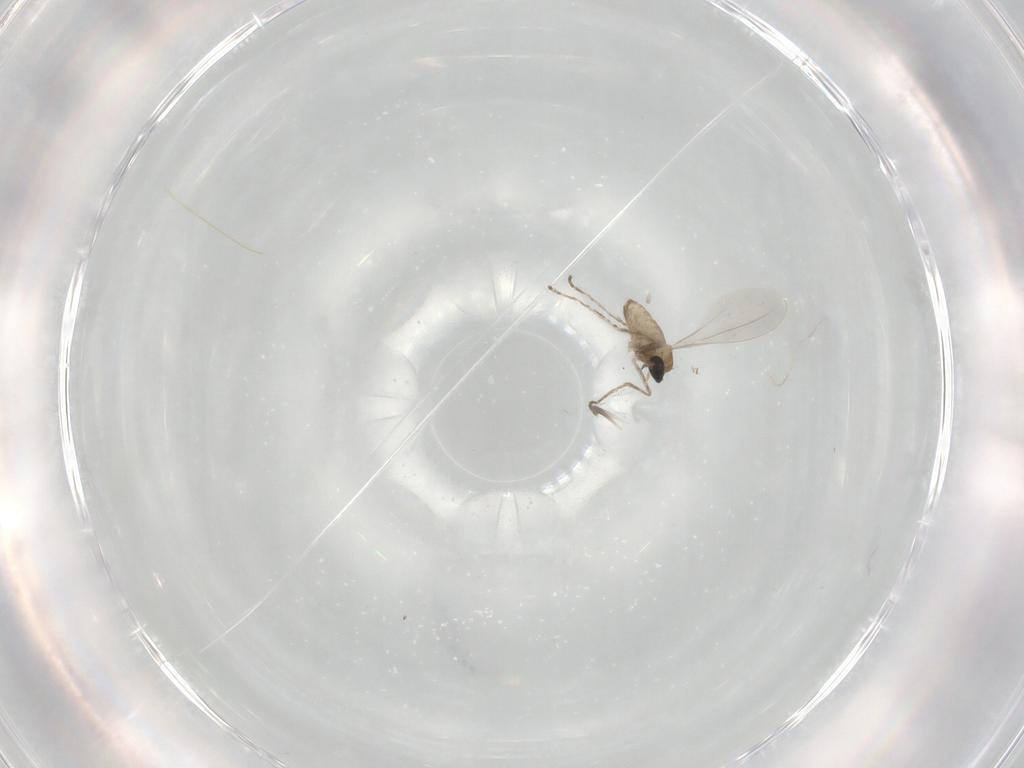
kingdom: Animalia
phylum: Arthropoda
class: Insecta
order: Diptera
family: Cecidomyiidae
